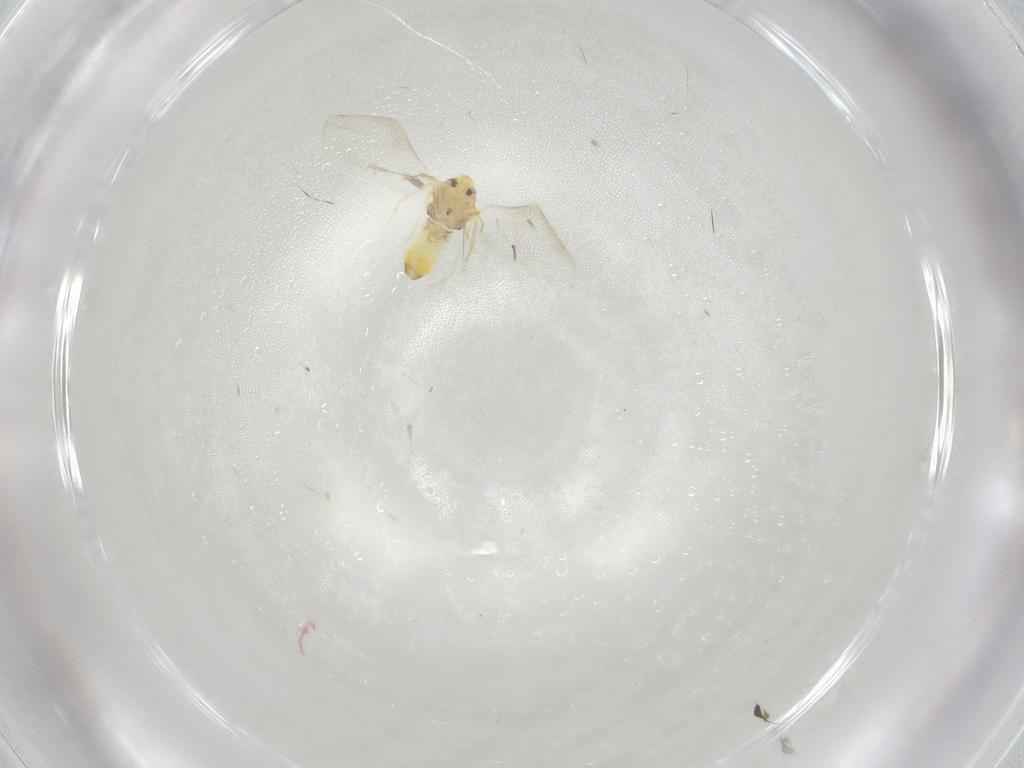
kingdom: Animalia
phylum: Arthropoda
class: Insecta
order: Hemiptera
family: Aleyrodidae
